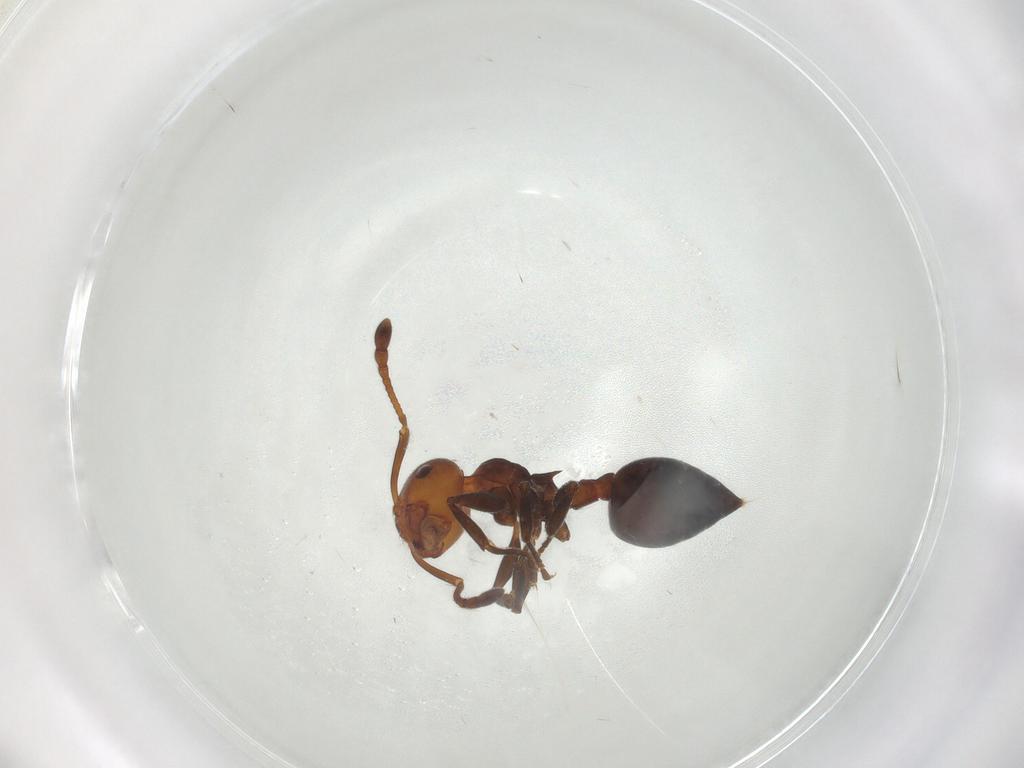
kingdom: Animalia
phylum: Arthropoda
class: Insecta
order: Hymenoptera
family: Formicidae
